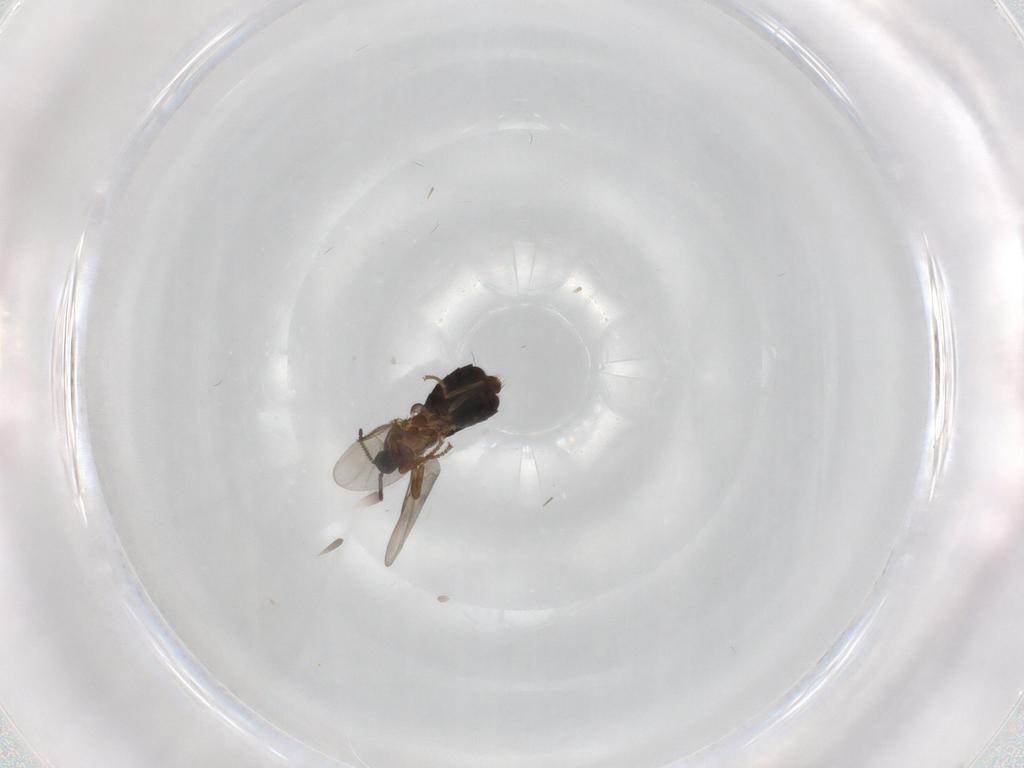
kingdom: Animalia
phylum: Arthropoda
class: Insecta
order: Diptera
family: Scatopsidae
